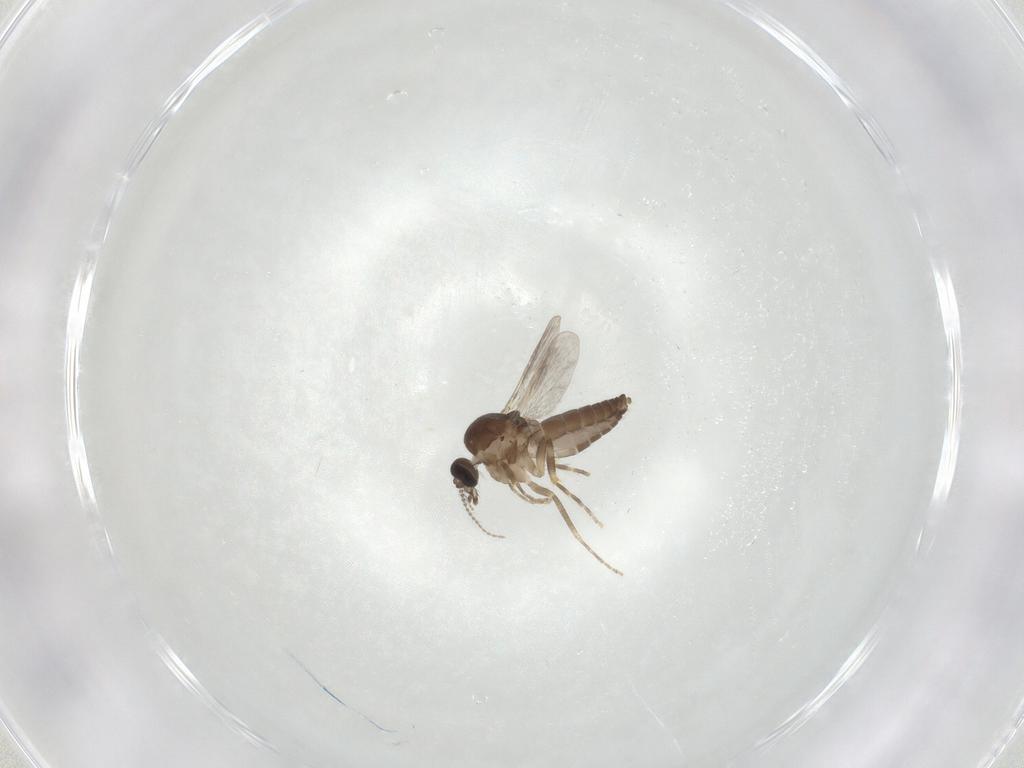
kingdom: Animalia
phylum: Arthropoda
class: Insecta
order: Diptera
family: Ceratopogonidae
